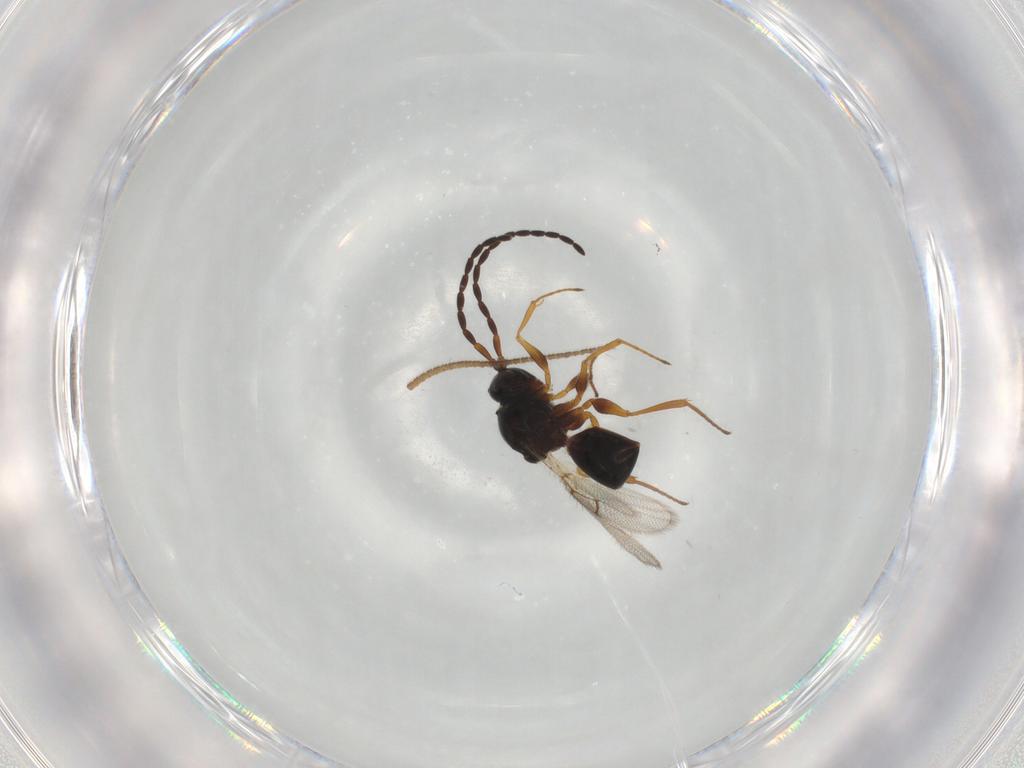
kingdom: Animalia
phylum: Arthropoda
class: Insecta
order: Hymenoptera
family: Figitidae
